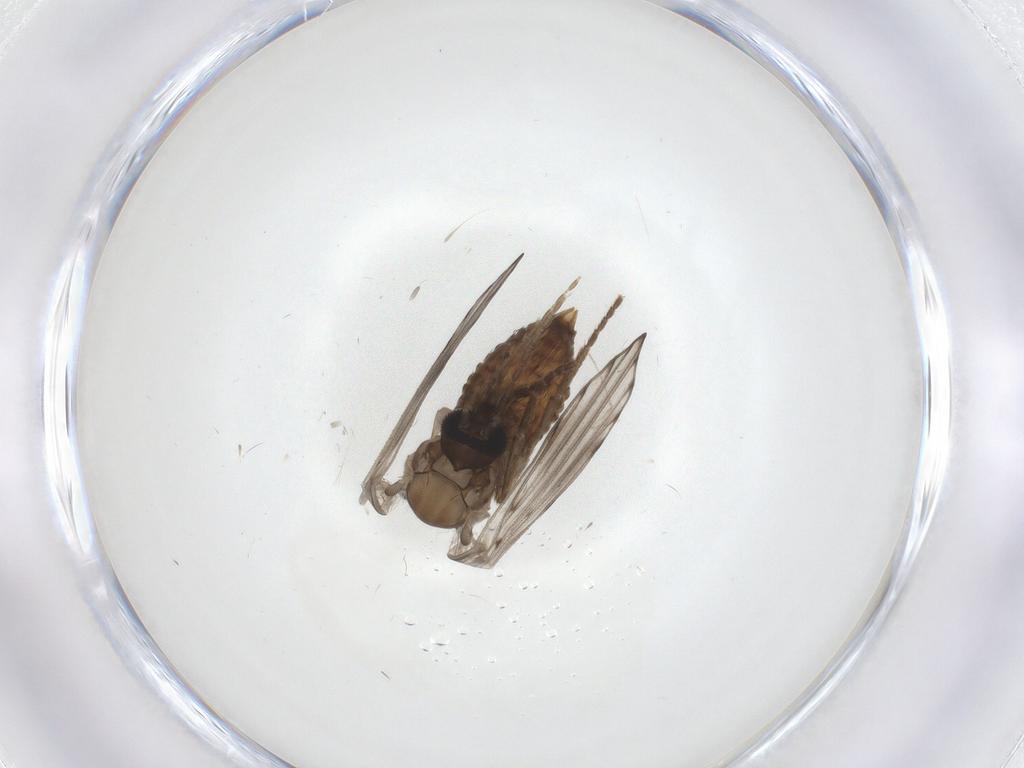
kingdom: Animalia
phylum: Arthropoda
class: Insecta
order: Diptera
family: Psychodidae
